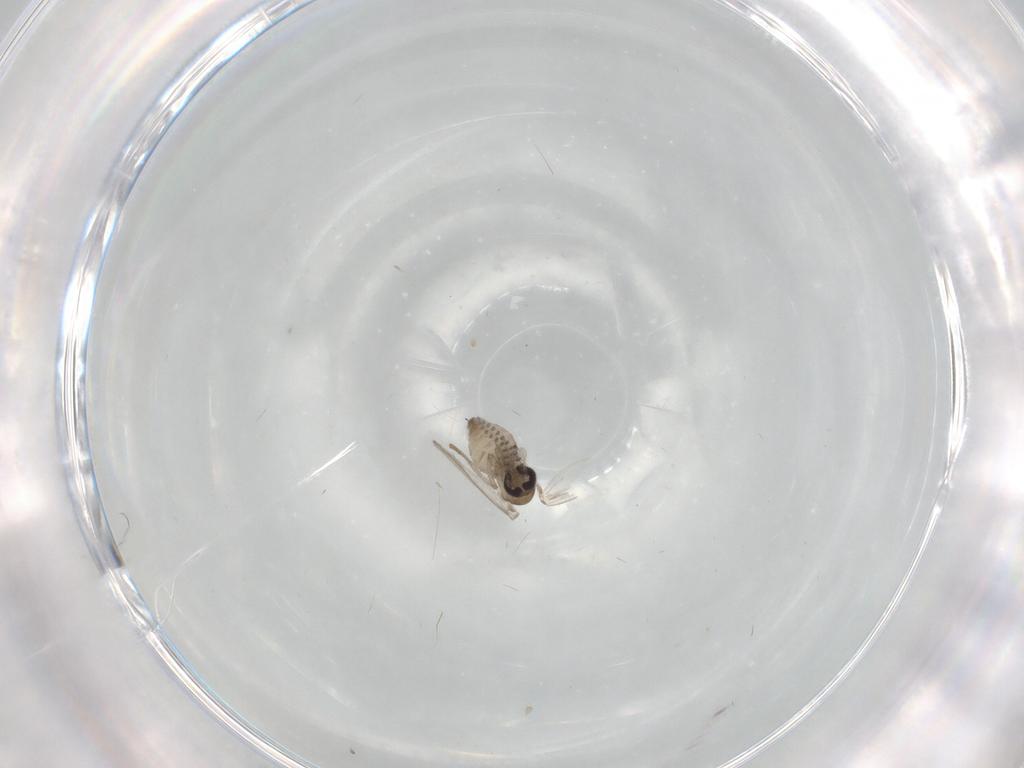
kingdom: Animalia
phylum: Arthropoda
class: Insecta
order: Diptera
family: Psychodidae
